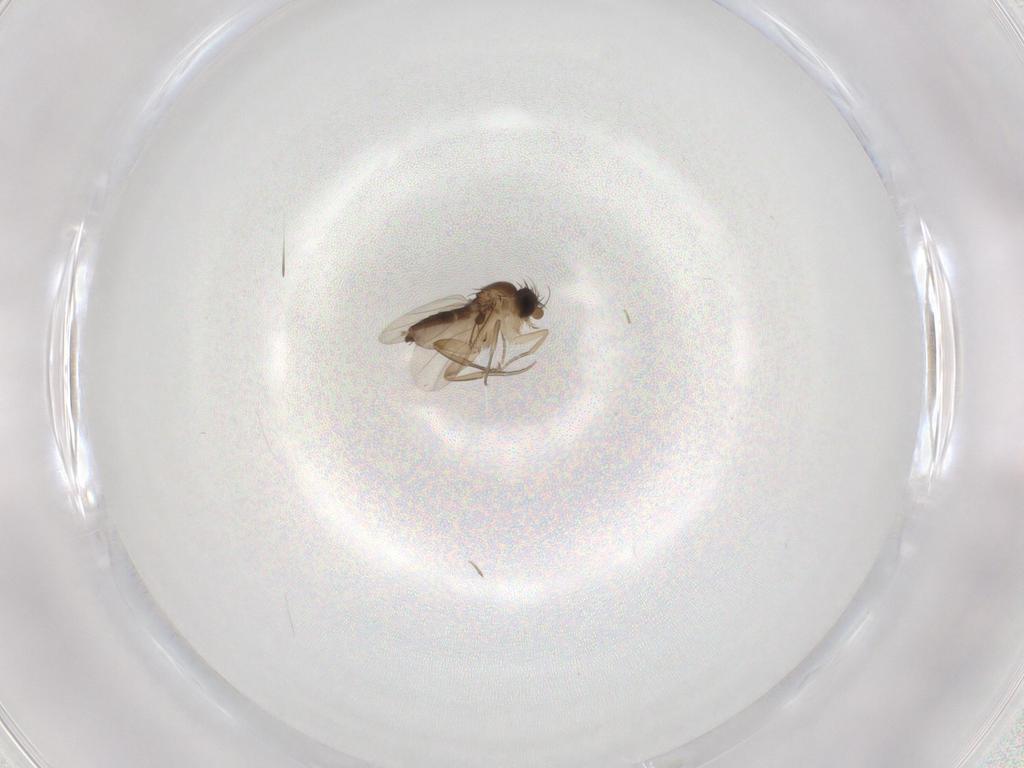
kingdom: Animalia
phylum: Arthropoda
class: Insecta
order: Diptera
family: Phoridae
